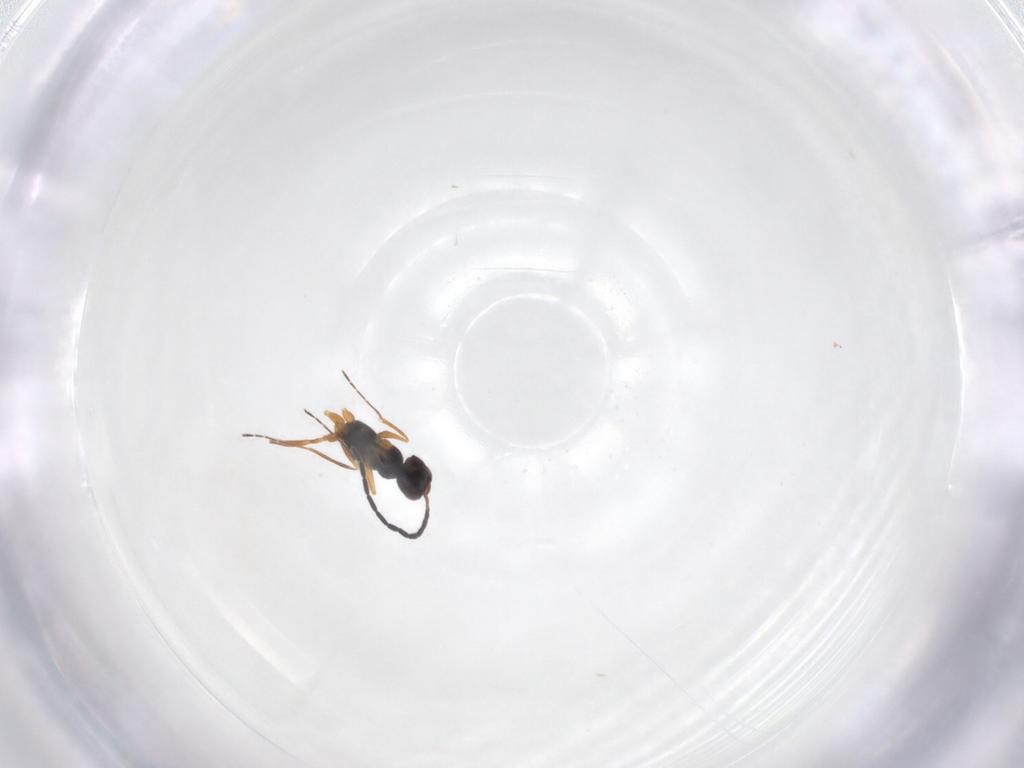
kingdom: Animalia
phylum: Arthropoda
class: Insecta
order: Hymenoptera
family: Mymaridae
